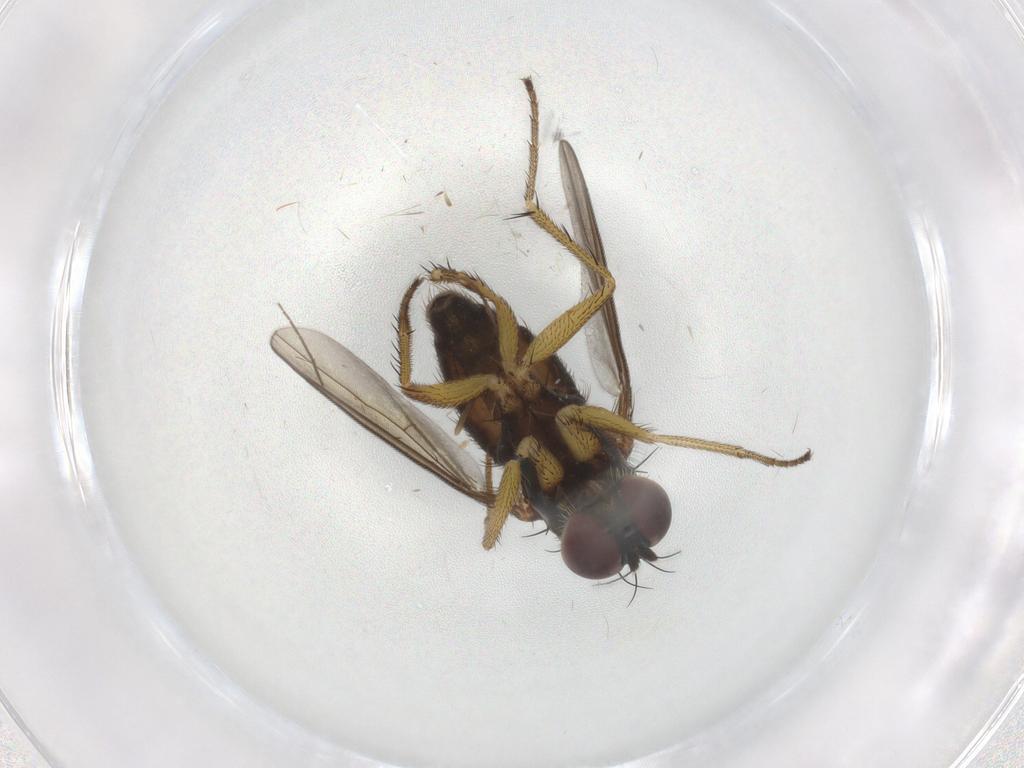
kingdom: Animalia
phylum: Arthropoda
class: Insecta
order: Diptera
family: Dolichopodidae
